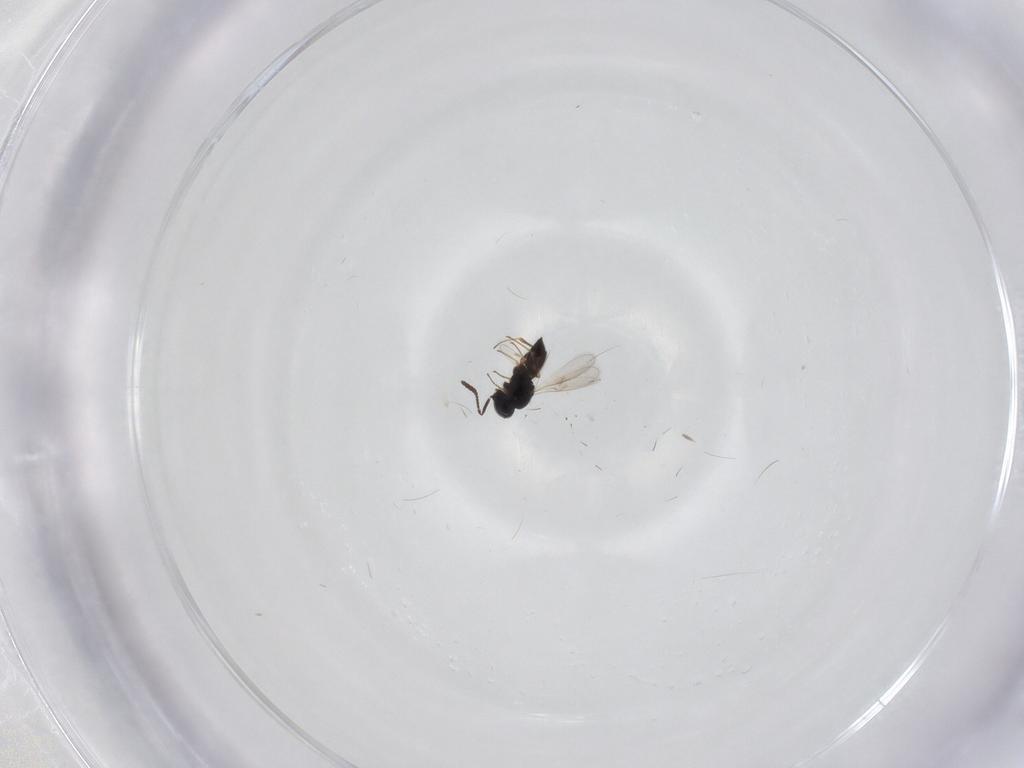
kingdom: Animalia
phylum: Arthropoda
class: Insecta
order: Hymenoptera
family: Scelionidae
